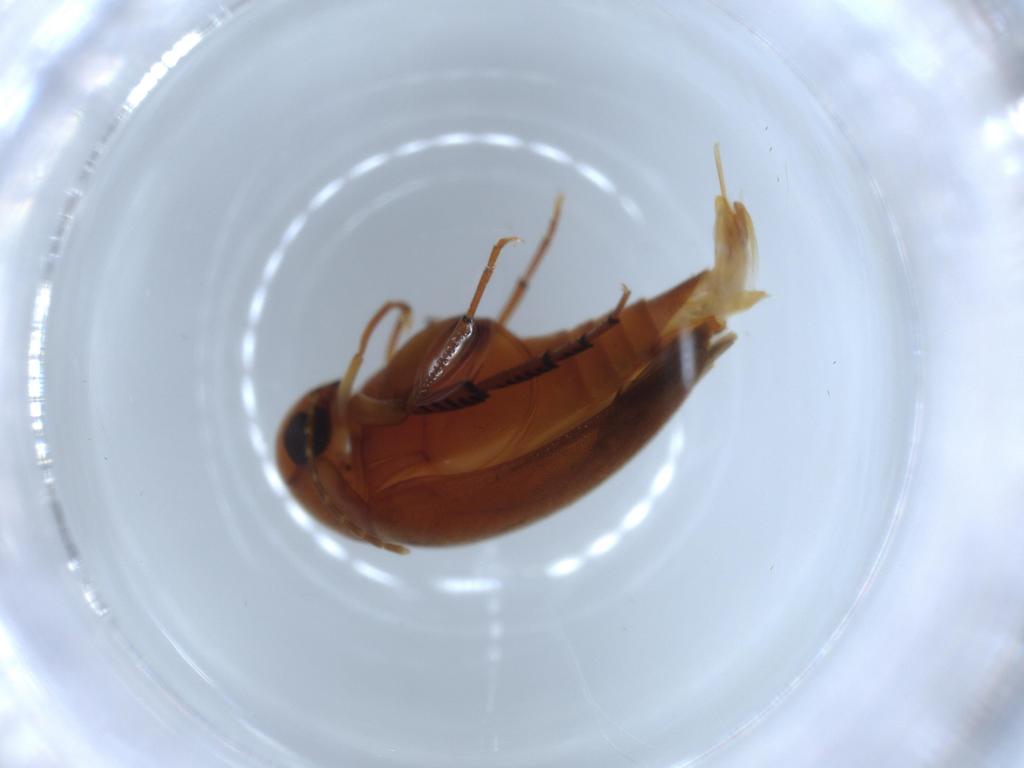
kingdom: Animalia
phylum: Arthropoda
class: Insecta
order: Coleoptera
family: Mordellidae
